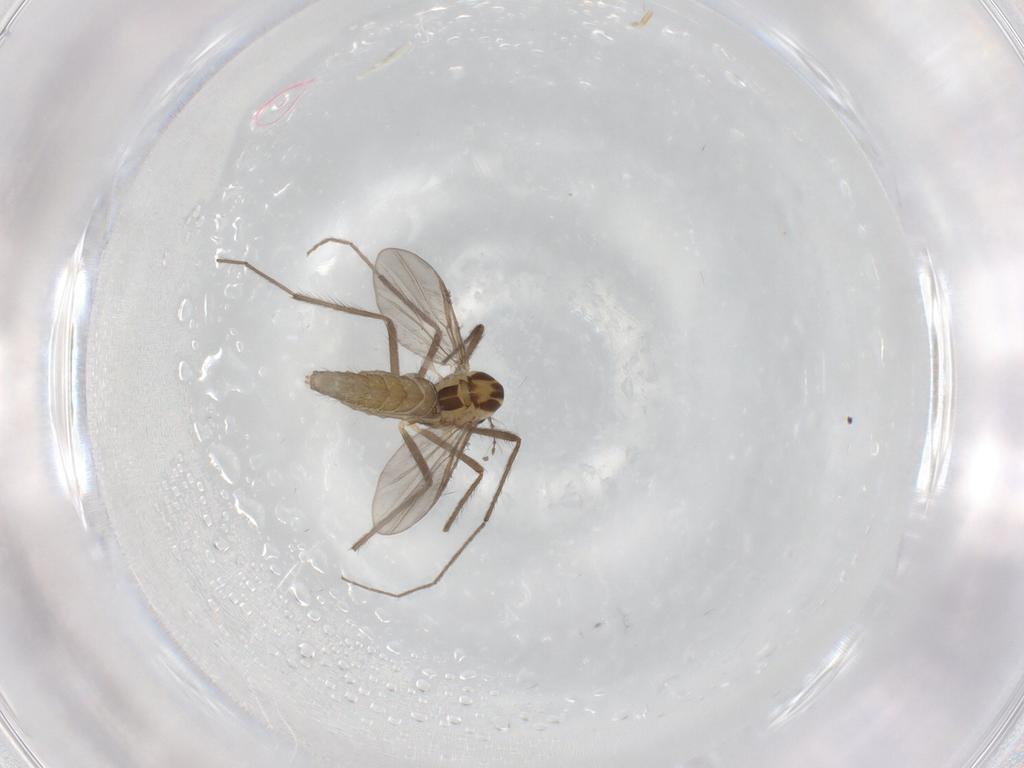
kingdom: Animalia
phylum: Arthropoda
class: Insecta
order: Diptera
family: Chironomidae
